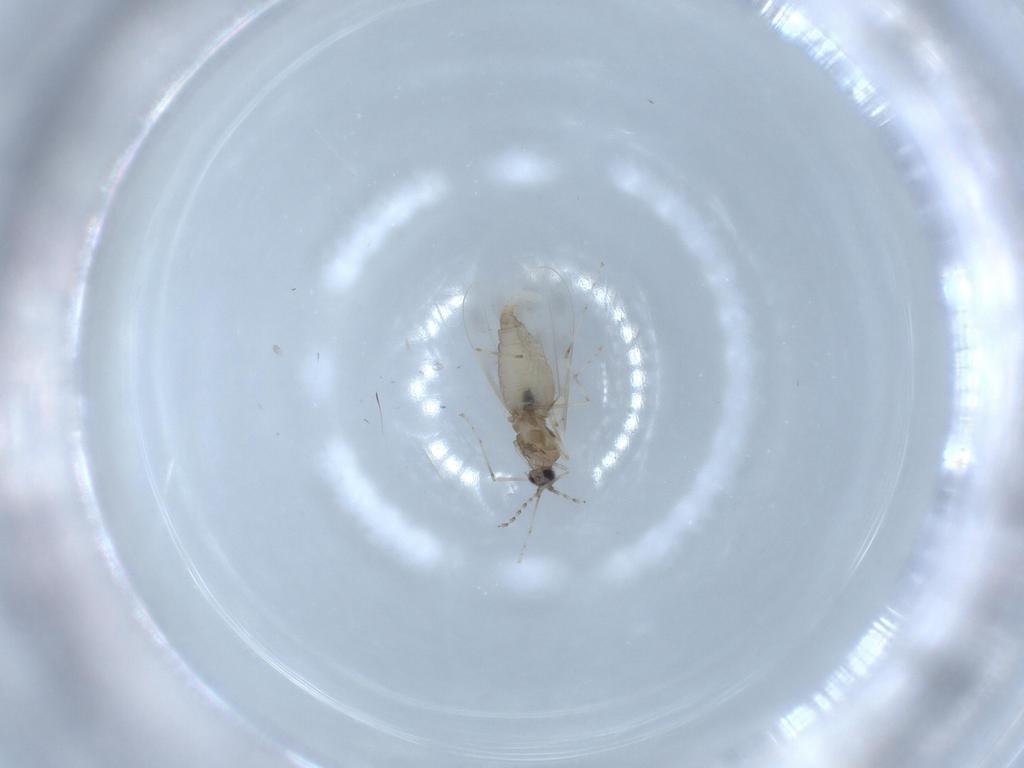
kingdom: Animalia
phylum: Arthropoda
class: Insecta
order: Diptera
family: Cecidomyiidae
